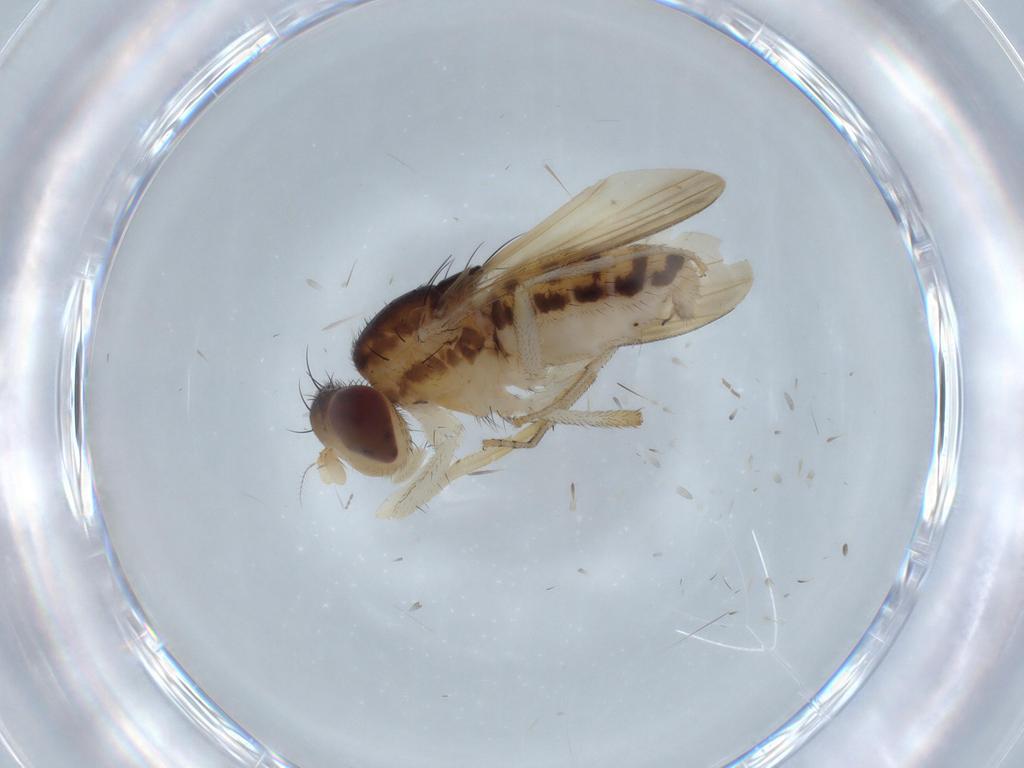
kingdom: Animalia
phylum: Arthropoda
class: Insecta
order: Diptera
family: Cecidomyiidae
